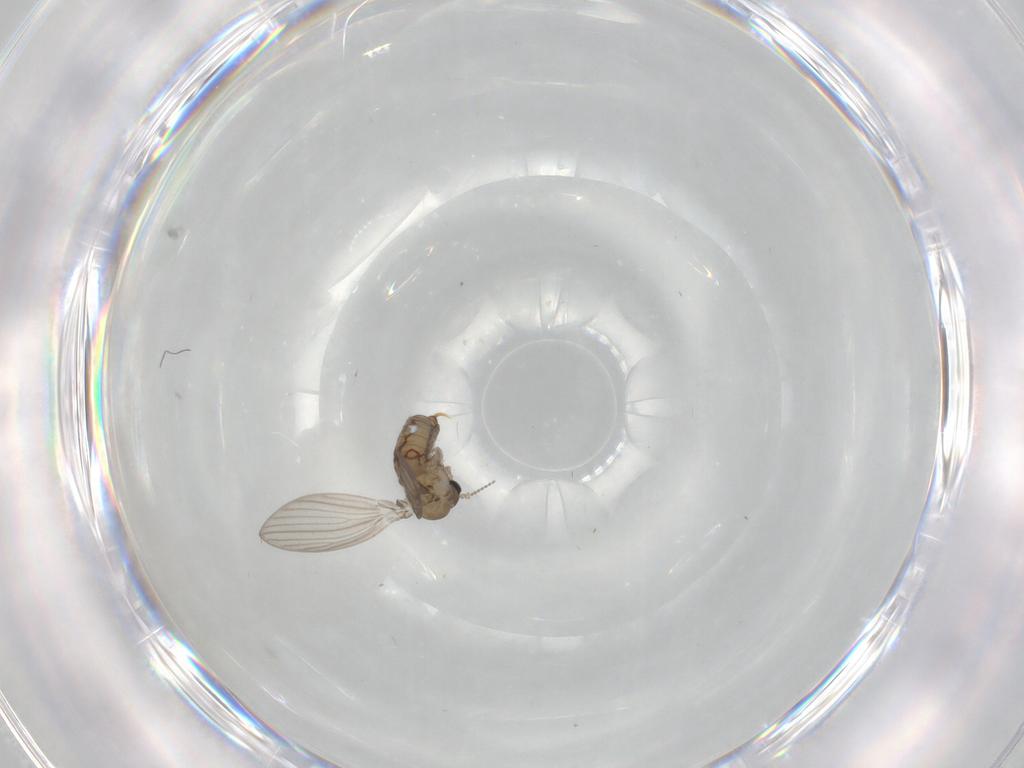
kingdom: Animalia
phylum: Arthropoda
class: Insecta
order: Diptera
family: Psychodidae
